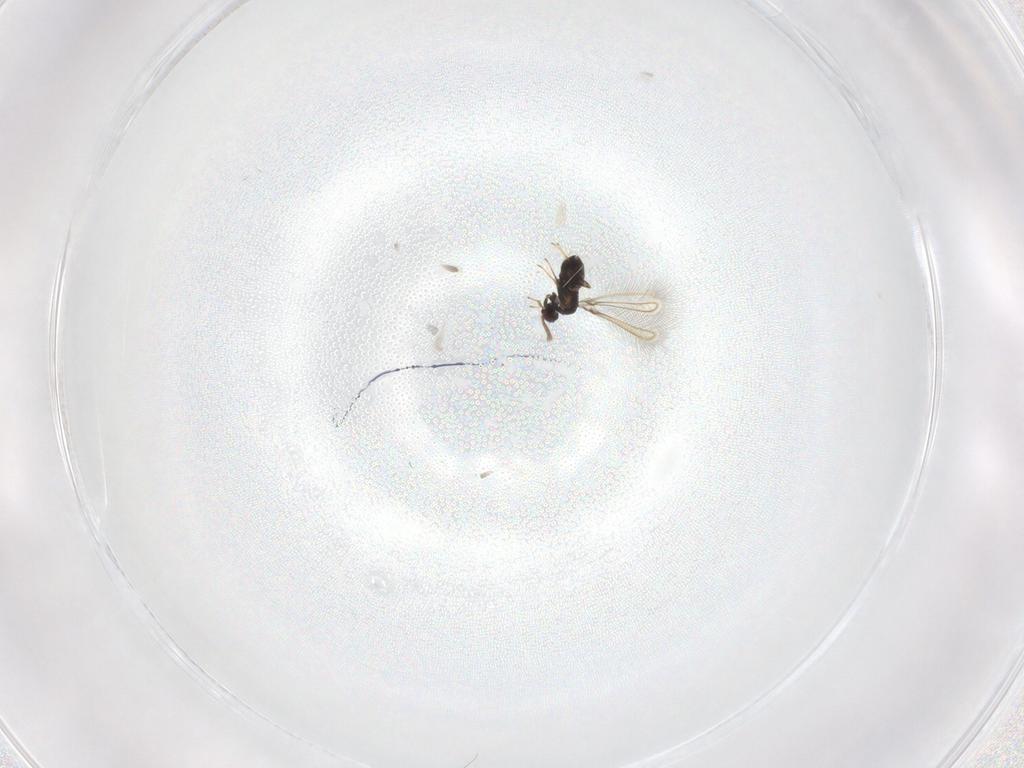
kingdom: Animalia
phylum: Arthropoda
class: Insecta
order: Hymenoptera
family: Mymaridae
